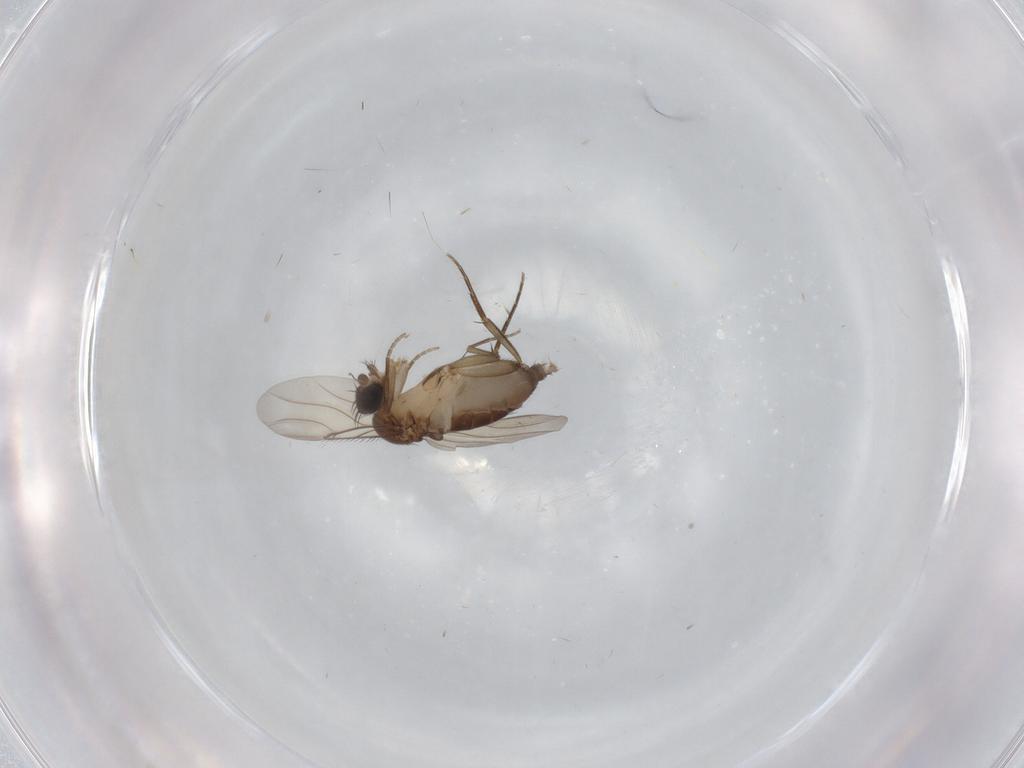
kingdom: Animalia
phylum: Arthropoda
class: Insecta
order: Diptera
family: Phoridae
